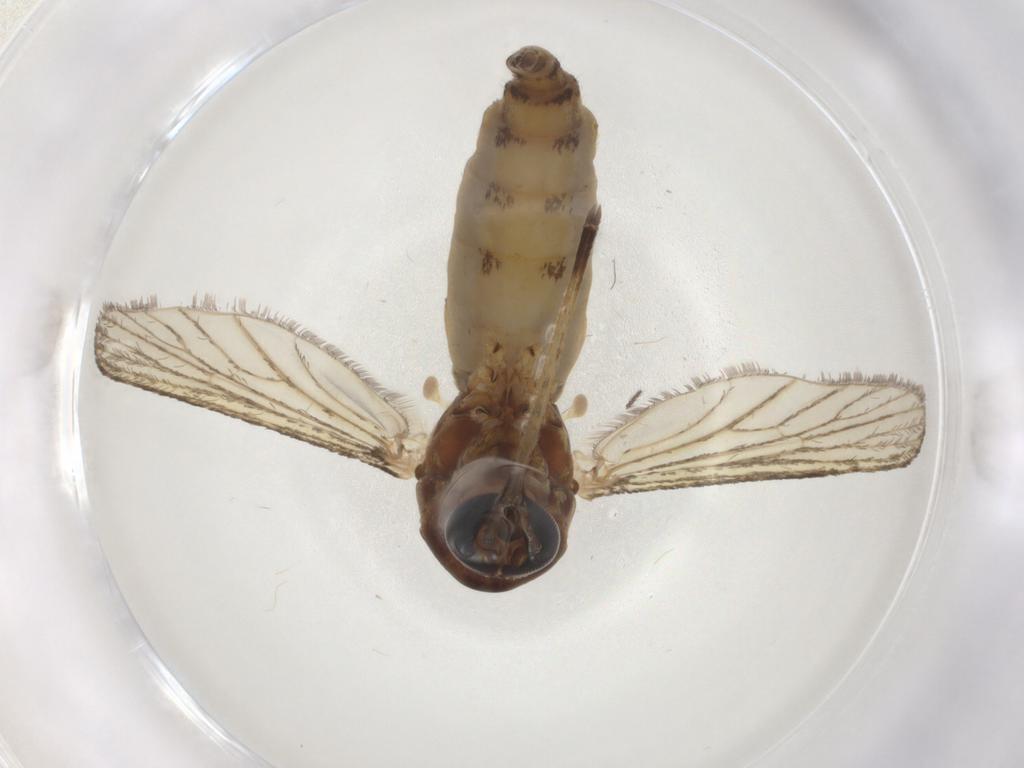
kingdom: Animalia
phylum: Arthropoda
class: Insecta
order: Diptera
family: Culicidae
